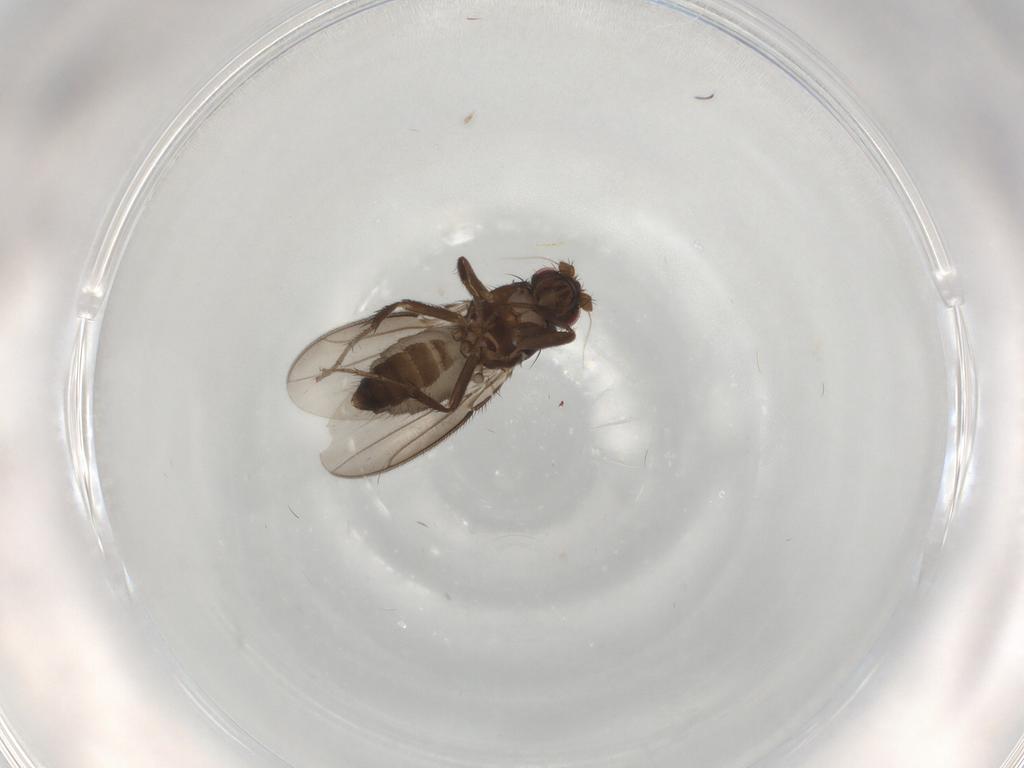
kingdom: Animalia
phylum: Arthropoda
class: Insecta
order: Diptera
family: Sphaeroceridae
